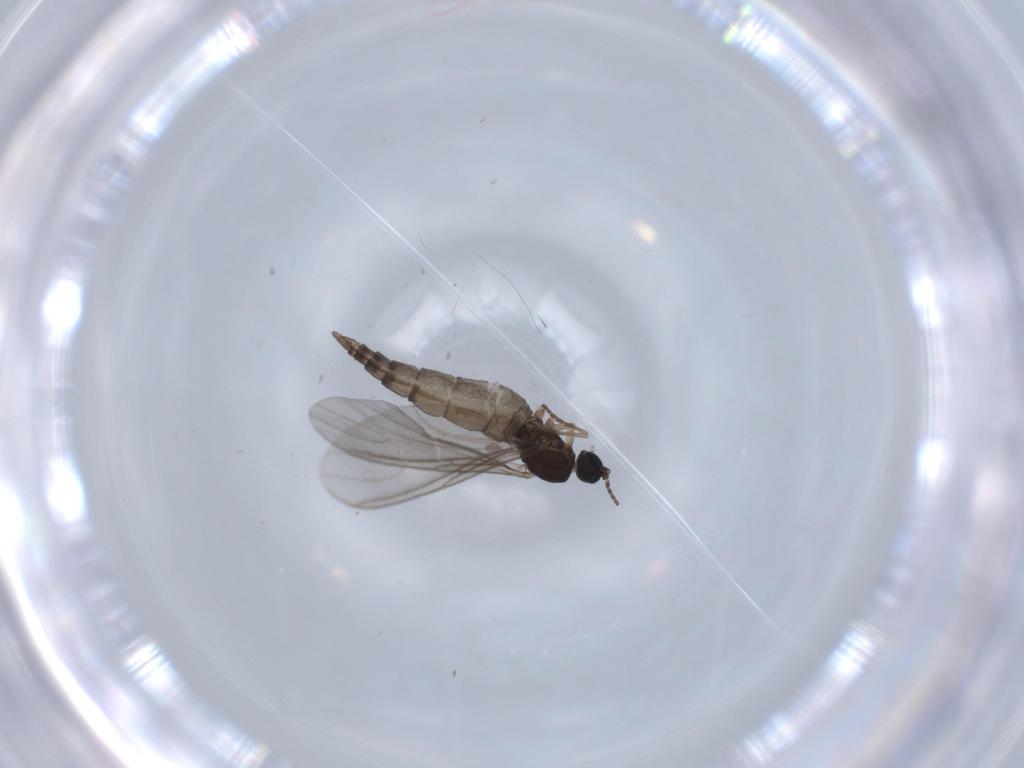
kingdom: Animalia
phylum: Arthropoda
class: Insecta
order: Diptera
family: Sciaridae
